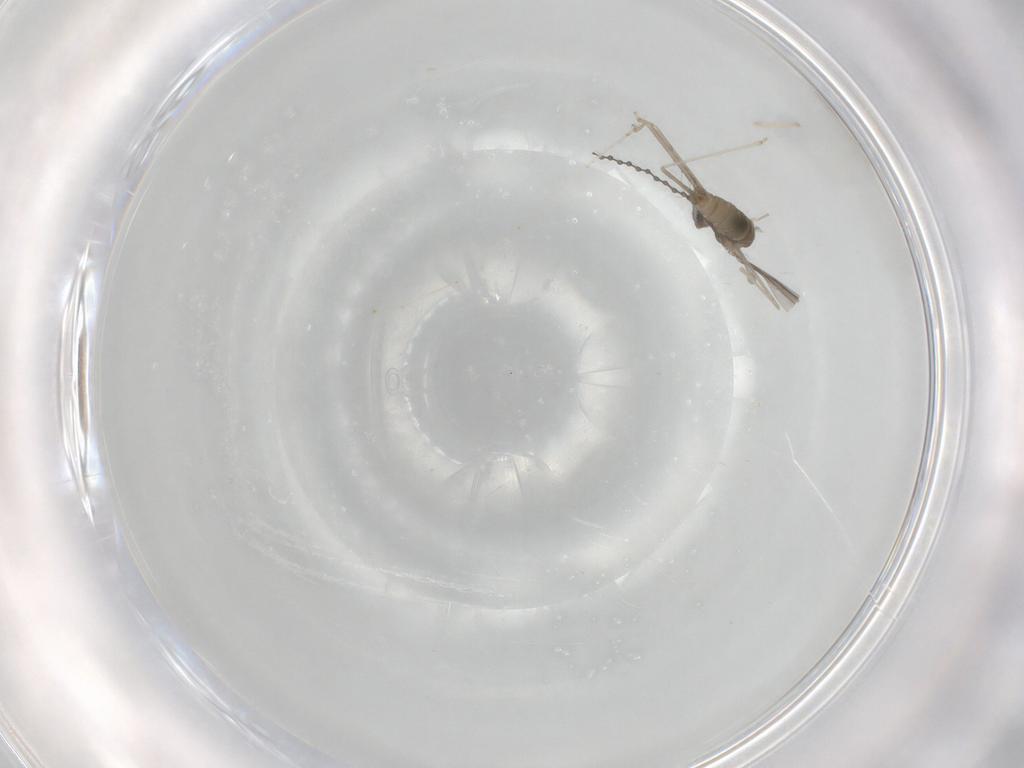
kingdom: Animalia
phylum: Arthropoda
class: Insecta
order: Diptera
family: Cecidomyiidae
